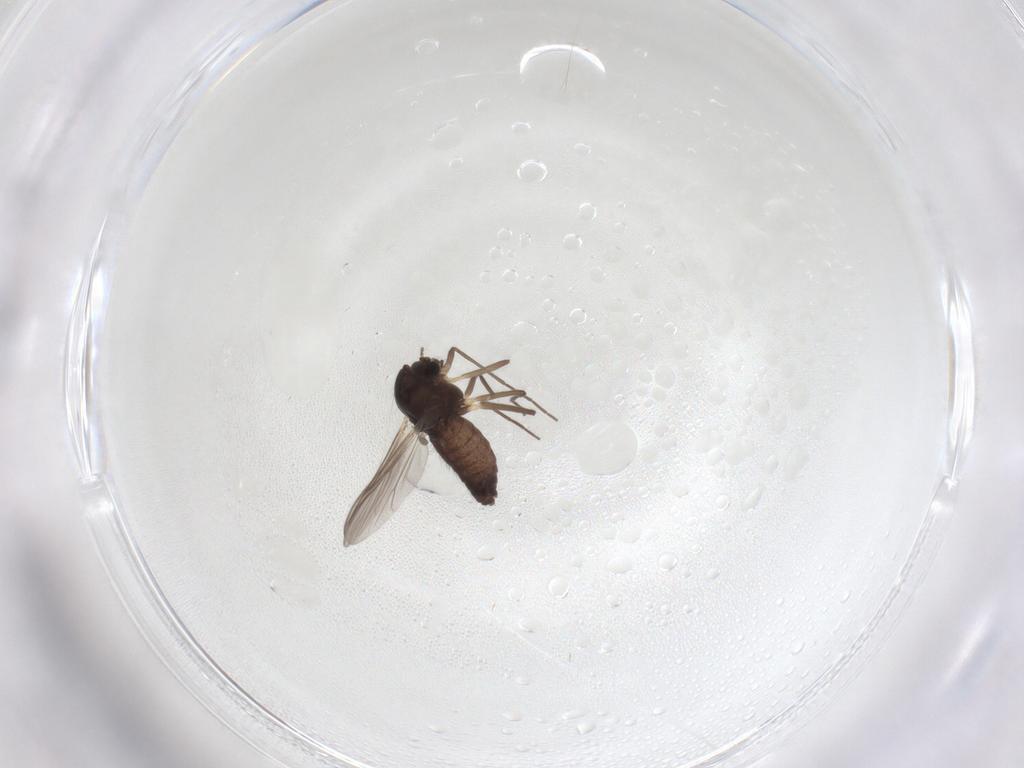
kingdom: Animalia
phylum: Arthropoda
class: Insecta
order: Diptera
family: Chironomidae
